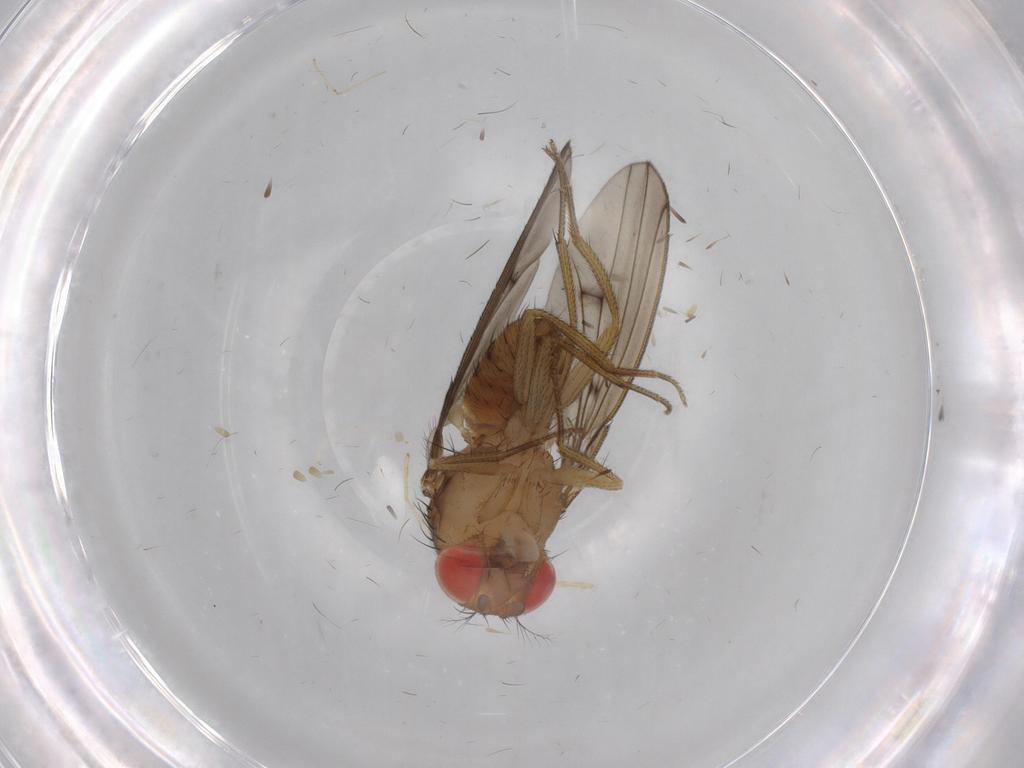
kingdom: Animalia
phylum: Arthropoda
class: Insecta
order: Diptera
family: Drosophilidae
